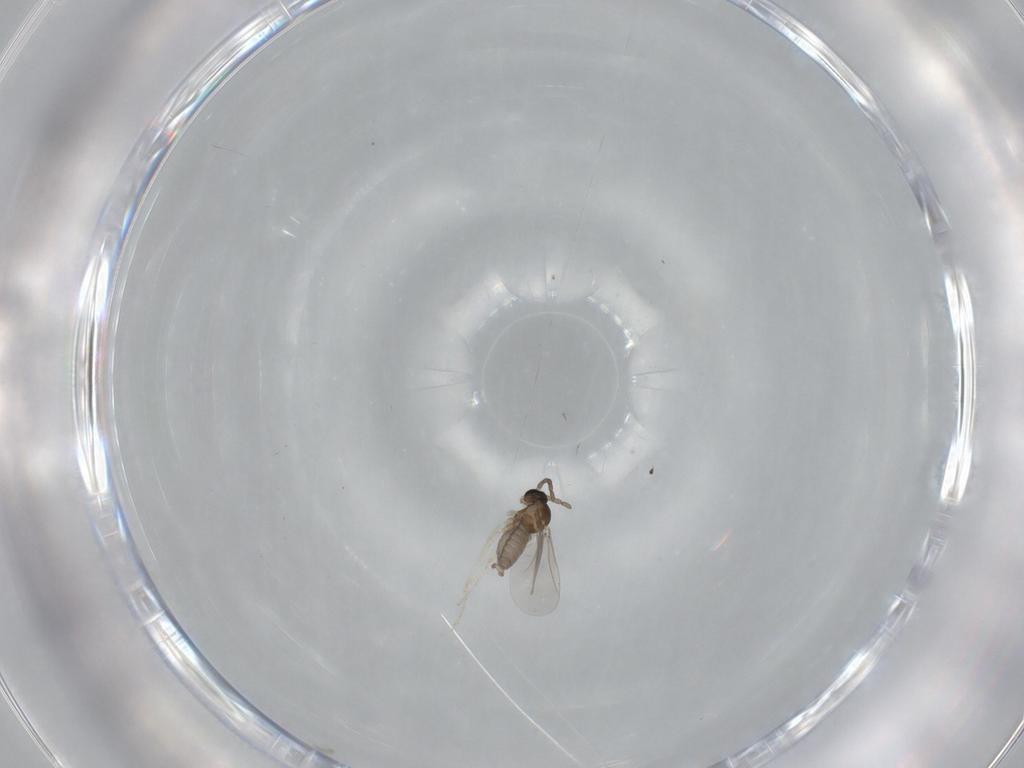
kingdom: Animalia
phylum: Arthropoda
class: Insecta
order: Diptera
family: Cecidomyiidae
